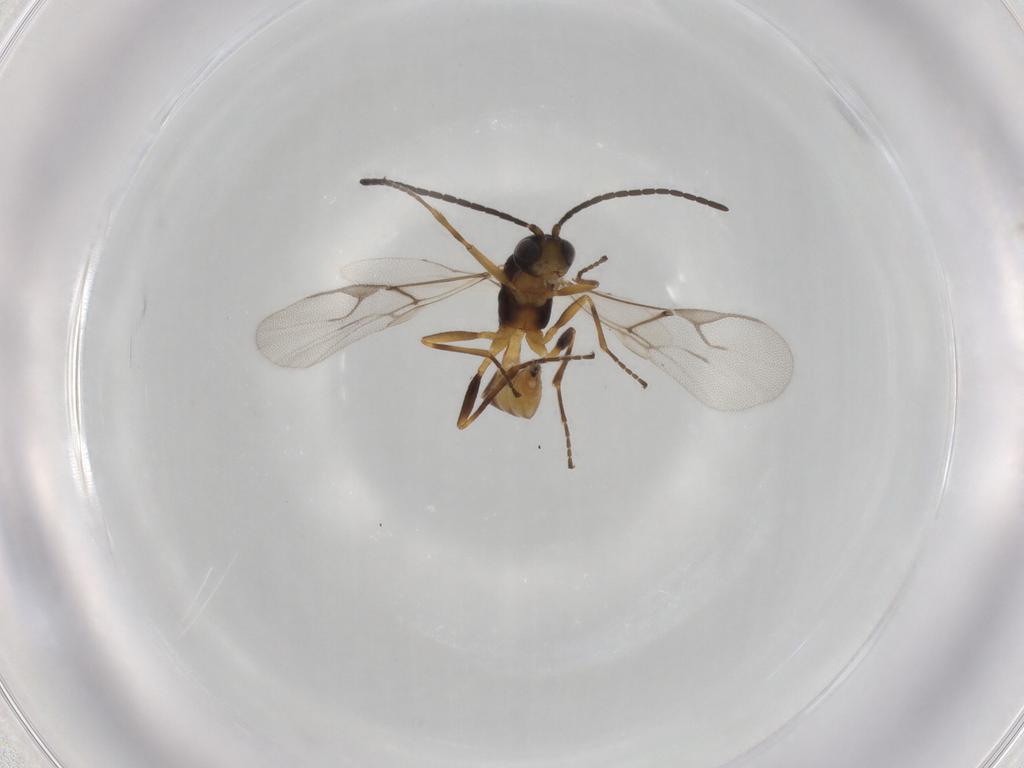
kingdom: Animalia
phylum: Arthropoda
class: Insecta
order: Hymenoptera
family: Braconidae
